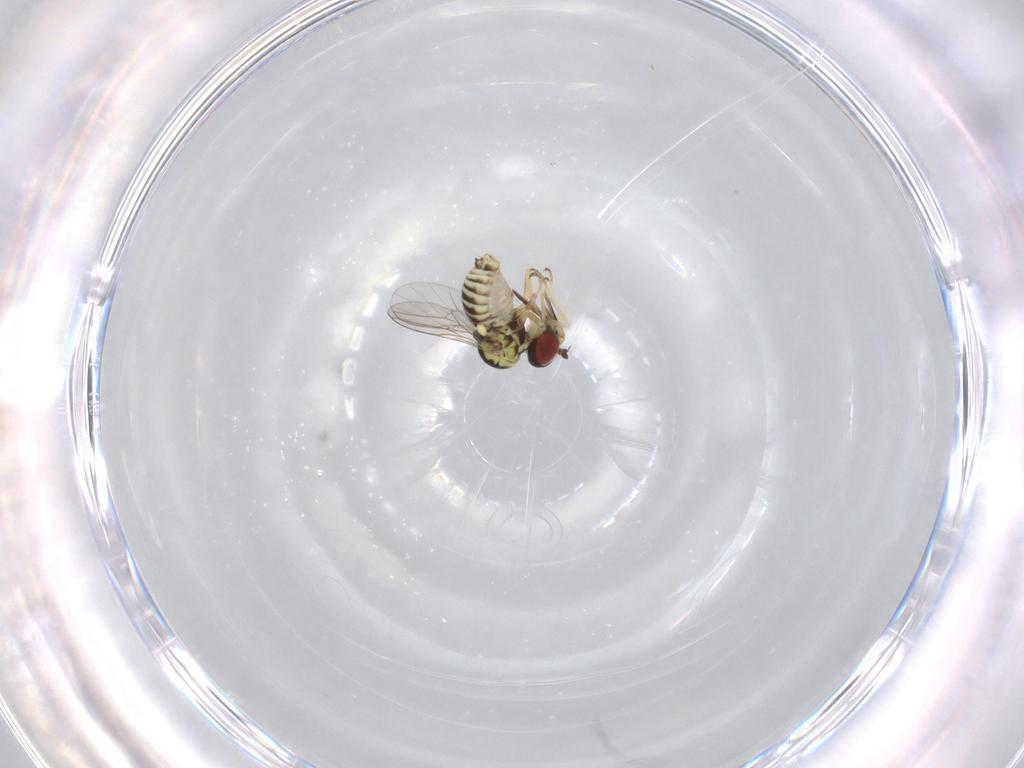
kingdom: Animalia
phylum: Arthropoda
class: Insecta
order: Diptera
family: Bombyliidae
